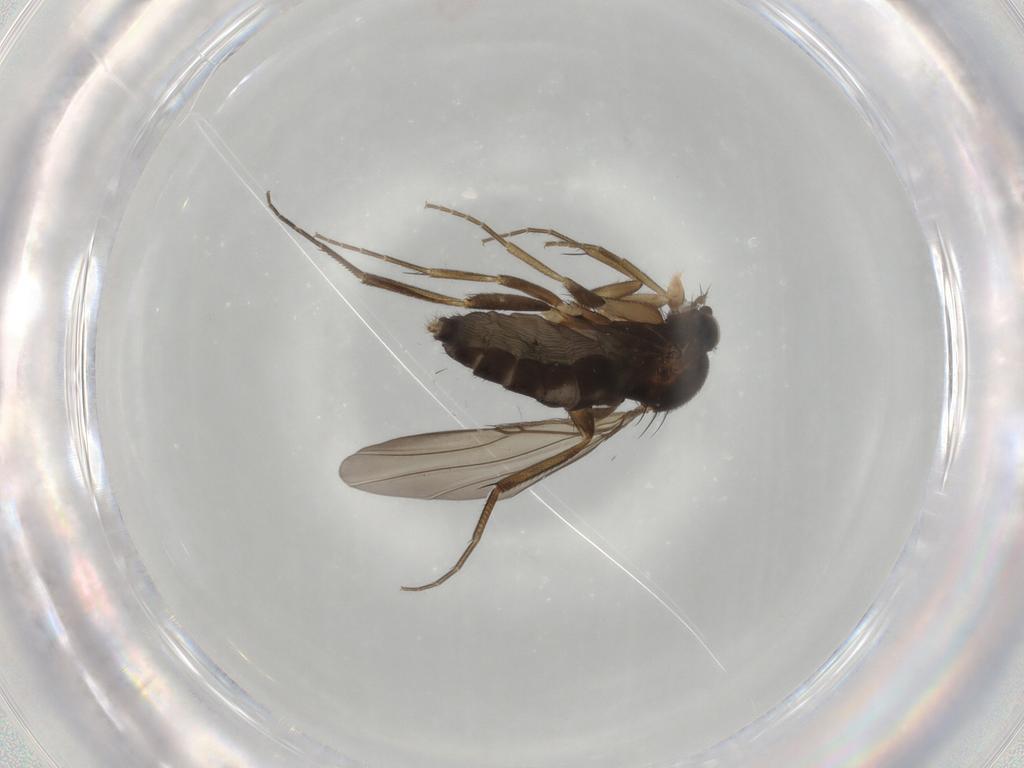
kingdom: Animalia
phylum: Arthropoda
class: Insecta
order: Diptera
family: Phoridae
